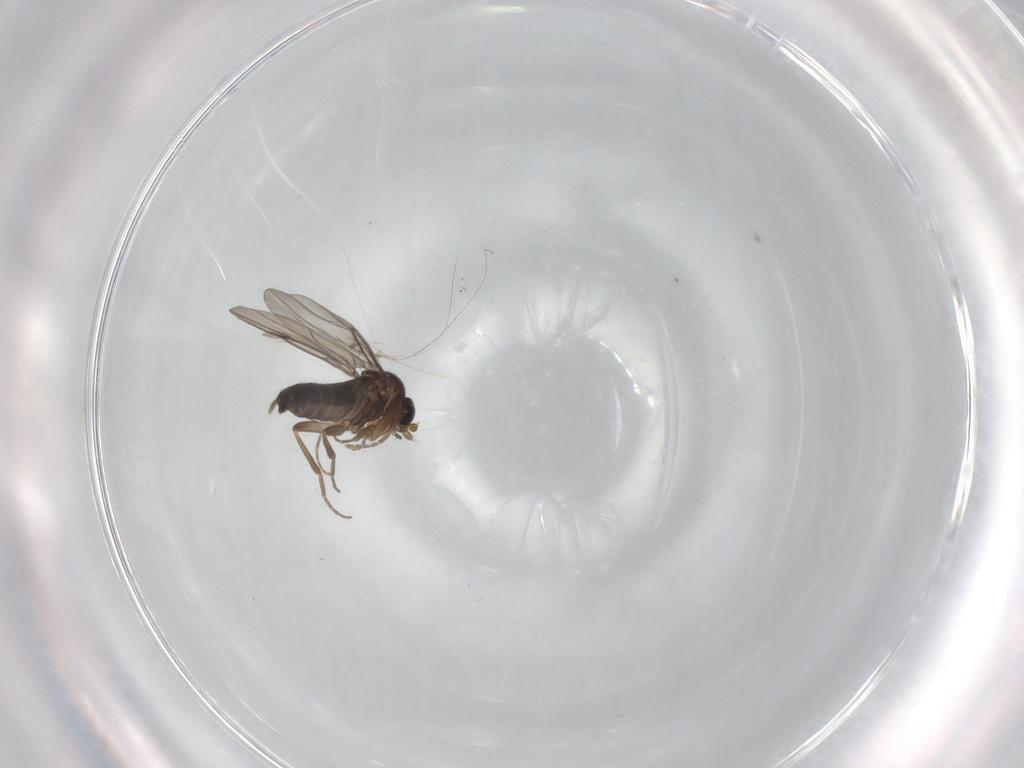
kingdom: Animalia
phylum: Arthropoda
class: Insecta
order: Diptera
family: Phoridae
